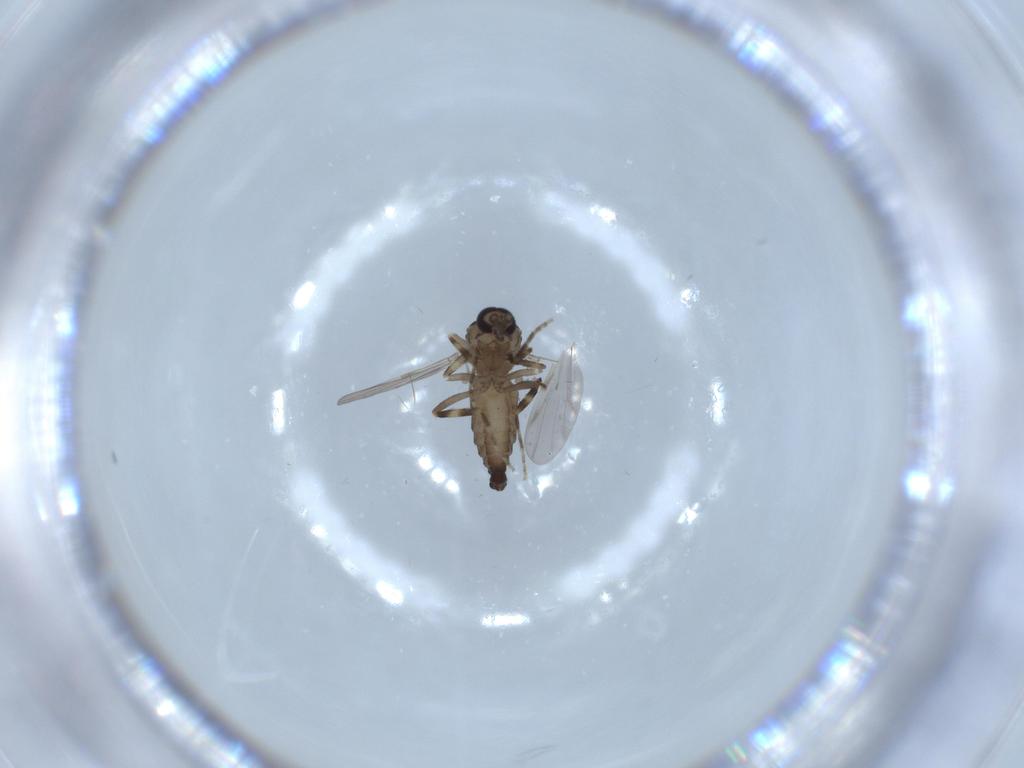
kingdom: Animalia
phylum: Arthropoda
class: Insecta
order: Diptera
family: Ceratopogonidae
